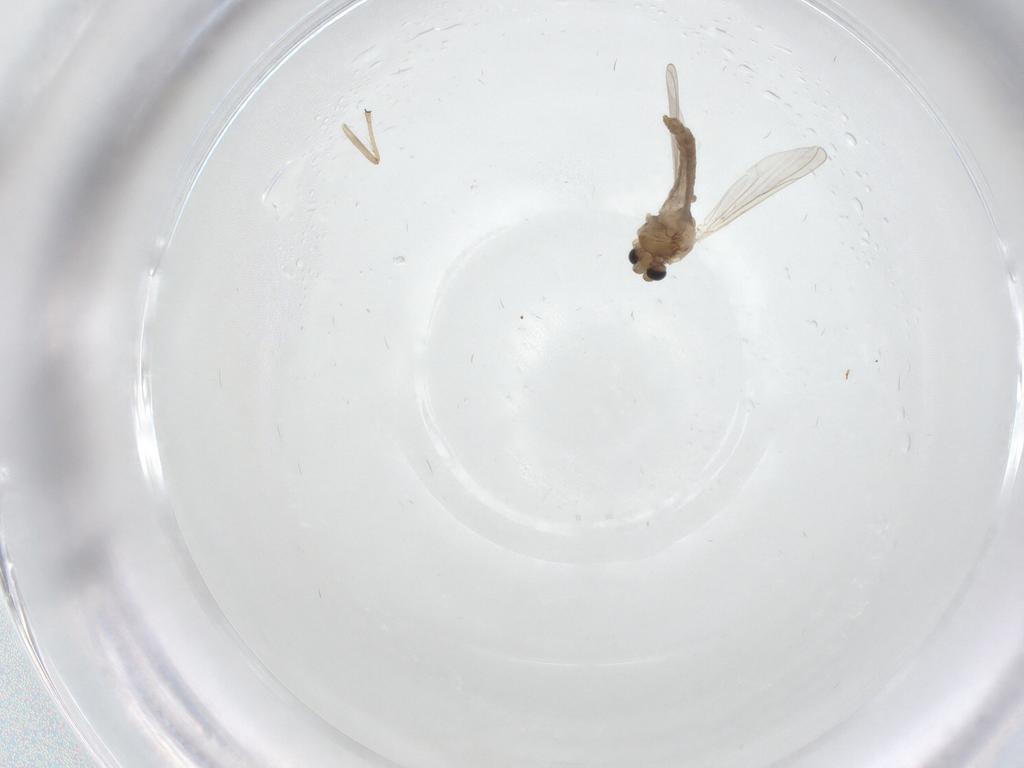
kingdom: Animalia
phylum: Arthropoda
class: Insecta
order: Diptera
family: Chironomidae
